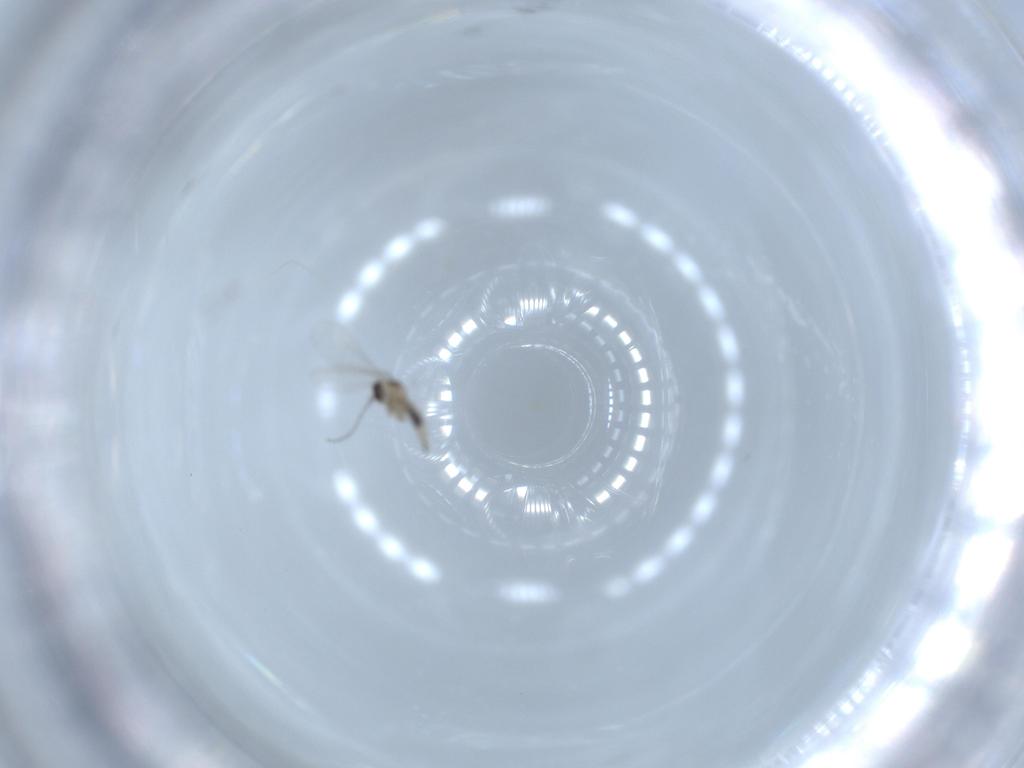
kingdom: Animalia
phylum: Arthropoda
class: Insecta
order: Diptera
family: Cecidomyiidae
